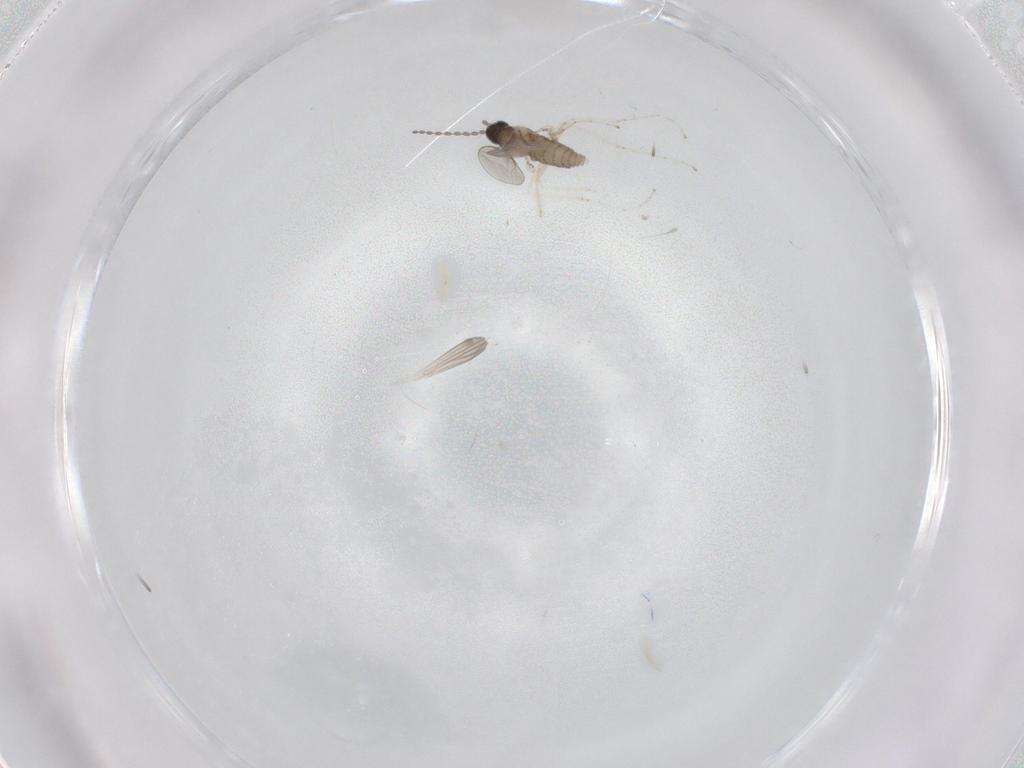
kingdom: Animalia
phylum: Arthropoda
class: Insecta
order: Diptera
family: Cecidomyiidae
